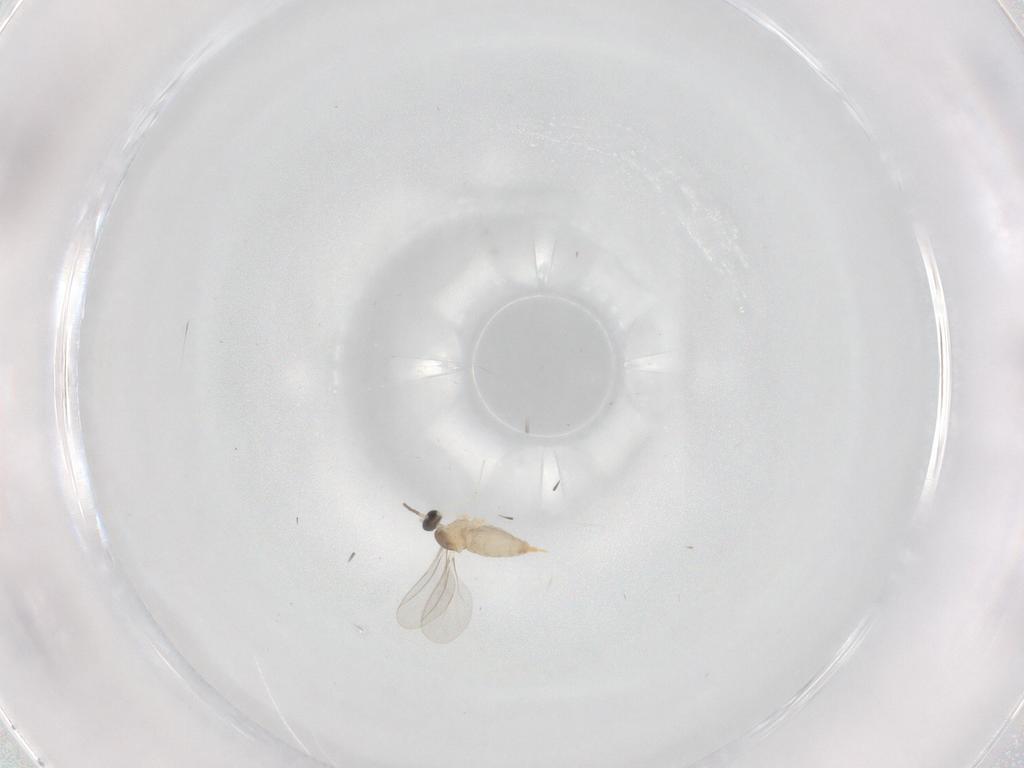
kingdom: Animalia
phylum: Arthropoda
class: Insecta
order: Diptera
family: Cecidomyiidae
